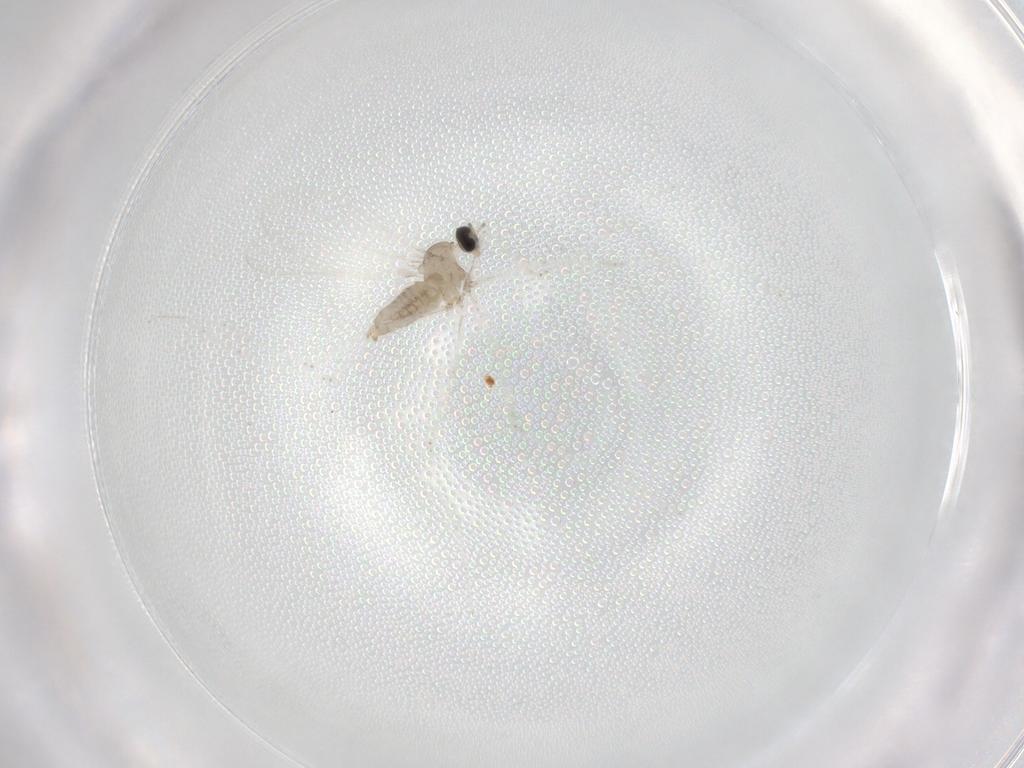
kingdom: Animalia
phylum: Arthropoda
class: Insecta
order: Diptera
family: Cecidomyiidae
